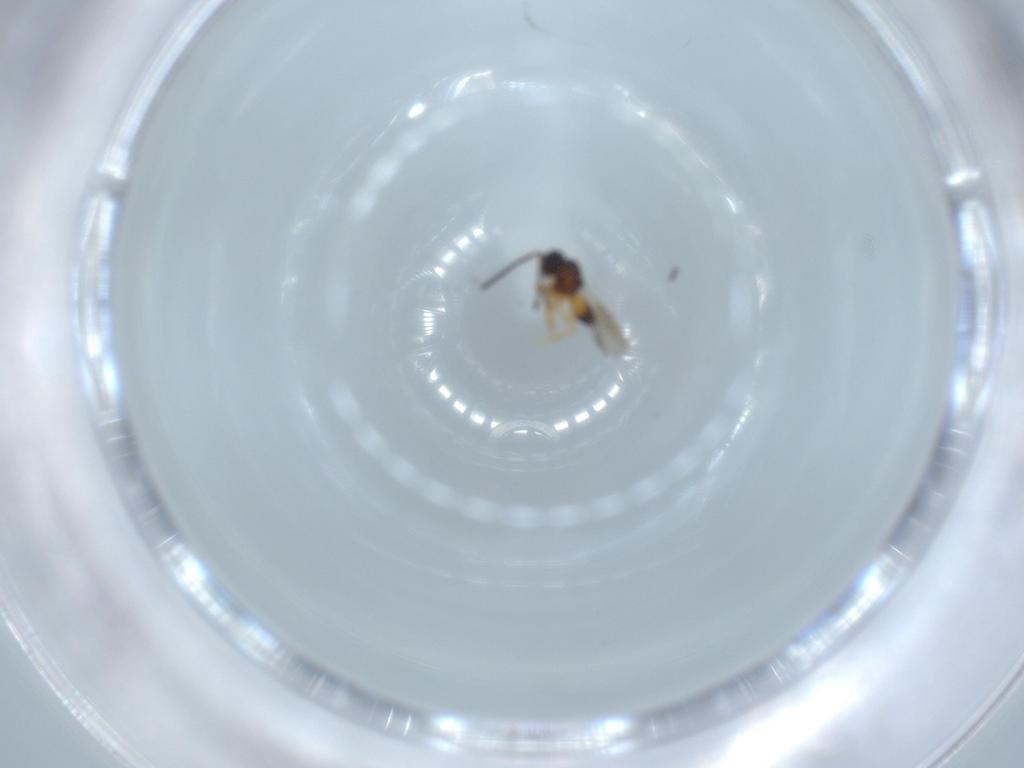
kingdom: Animalia
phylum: Arthropoda
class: Insecta
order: Hymenoptera
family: Ceraphronidae
